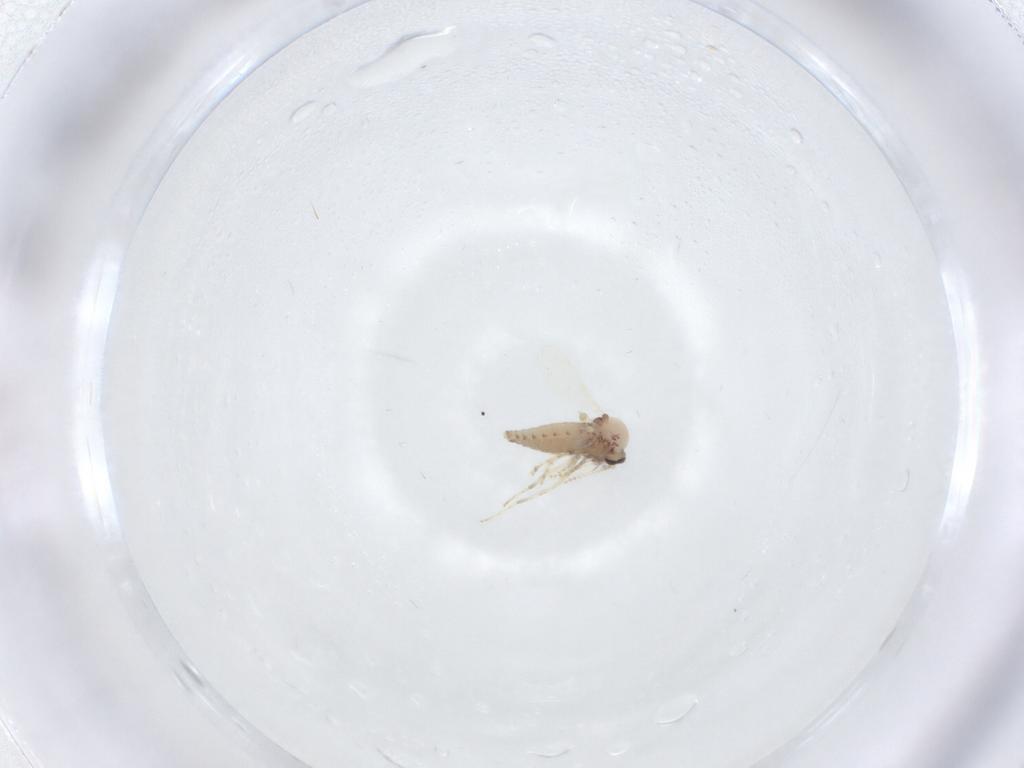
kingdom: Animalia
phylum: Arthropoda
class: Insecta
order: Diptera
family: Ceratopogonidae
